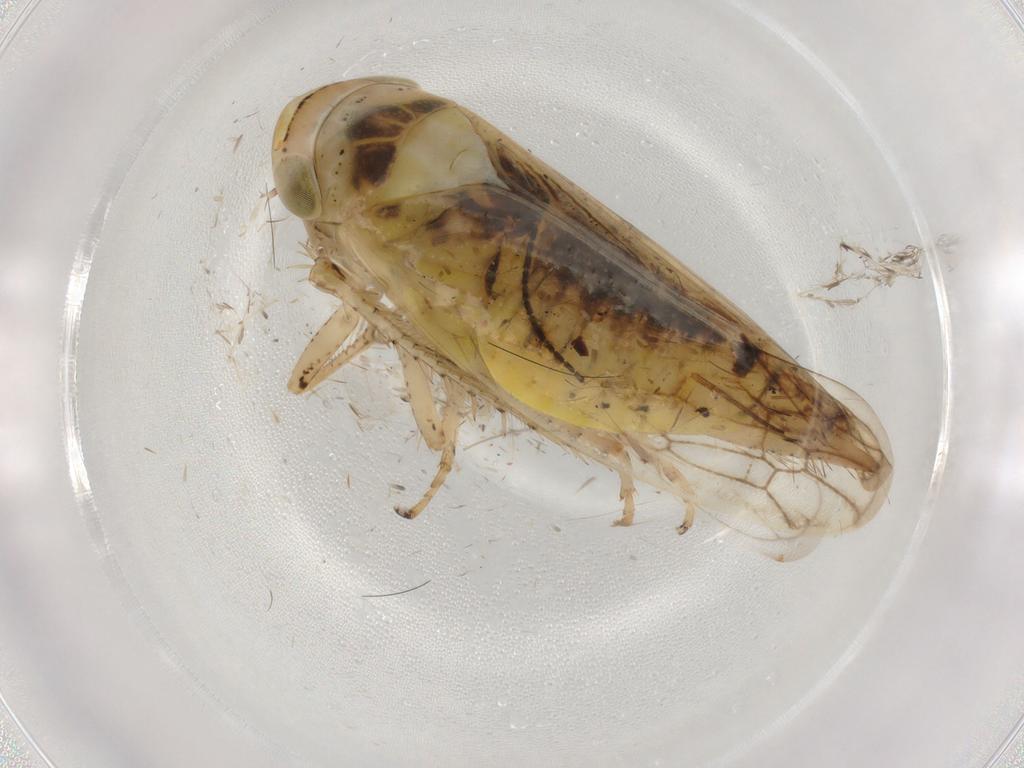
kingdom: Animalia
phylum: Arthropoda
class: Insecta
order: Hemiptera
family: Cicadellidae
